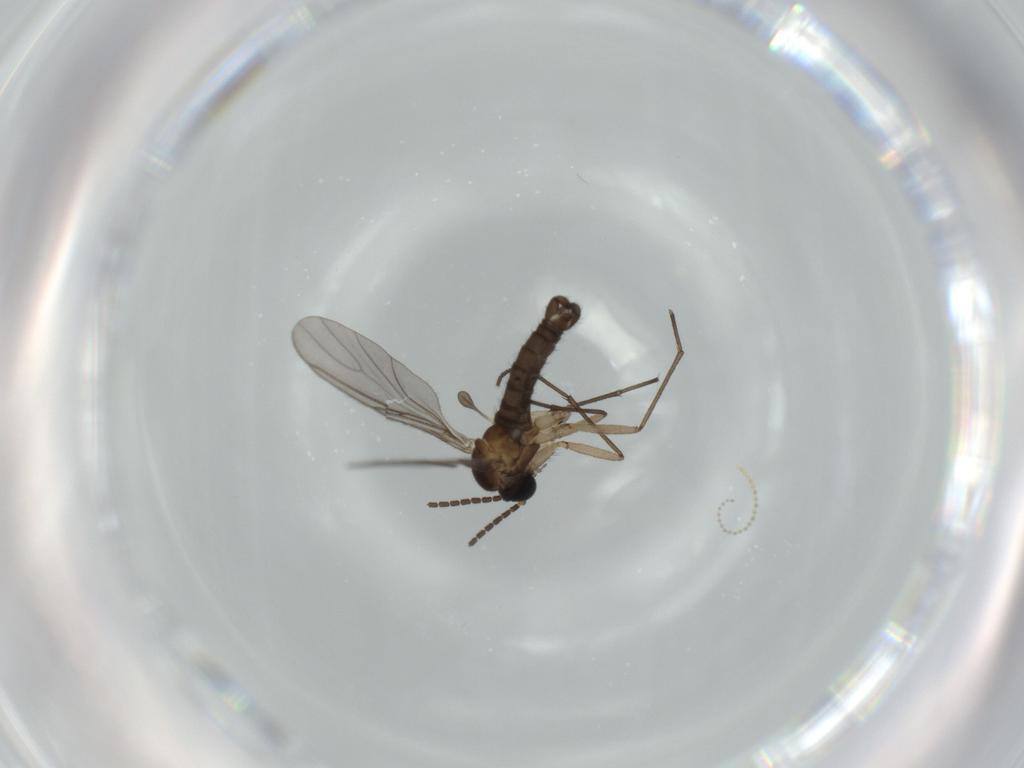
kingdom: Animalia
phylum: Arthropoda
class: Insecta
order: Diptera
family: Sciaridae
